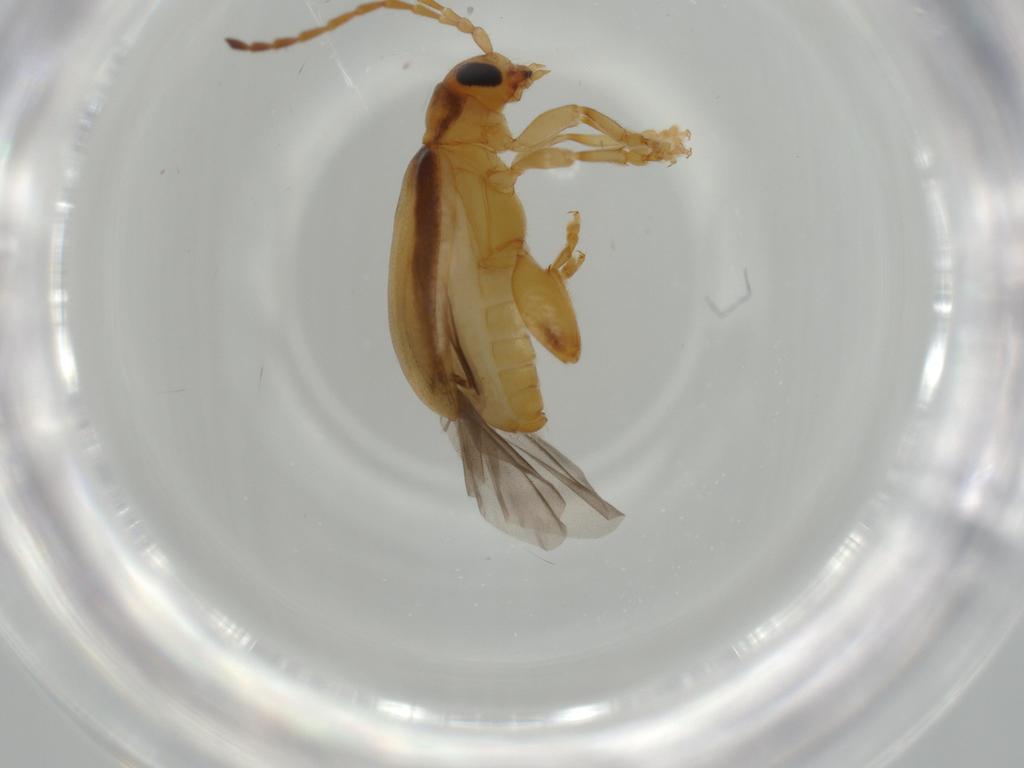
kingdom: Animalia
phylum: Arthropoda
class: Insecta
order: Coleoptera
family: Chrysomelidae
